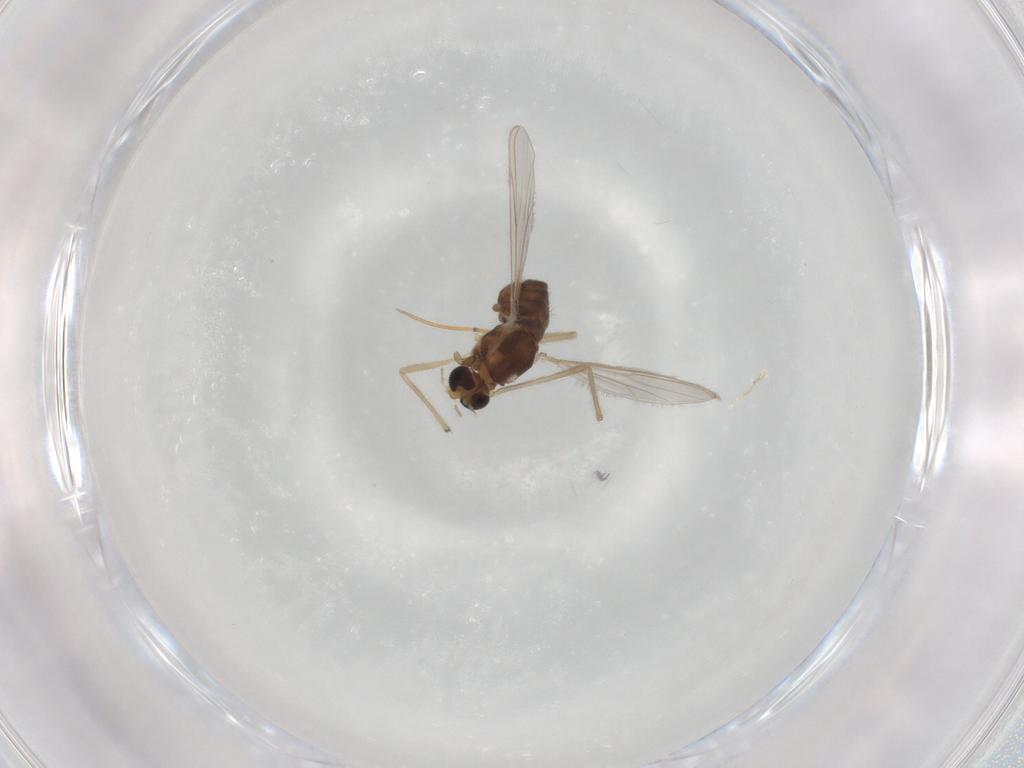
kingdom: Animalia
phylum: Arthropoda
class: Insecta
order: Diptera
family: Chironomidae
